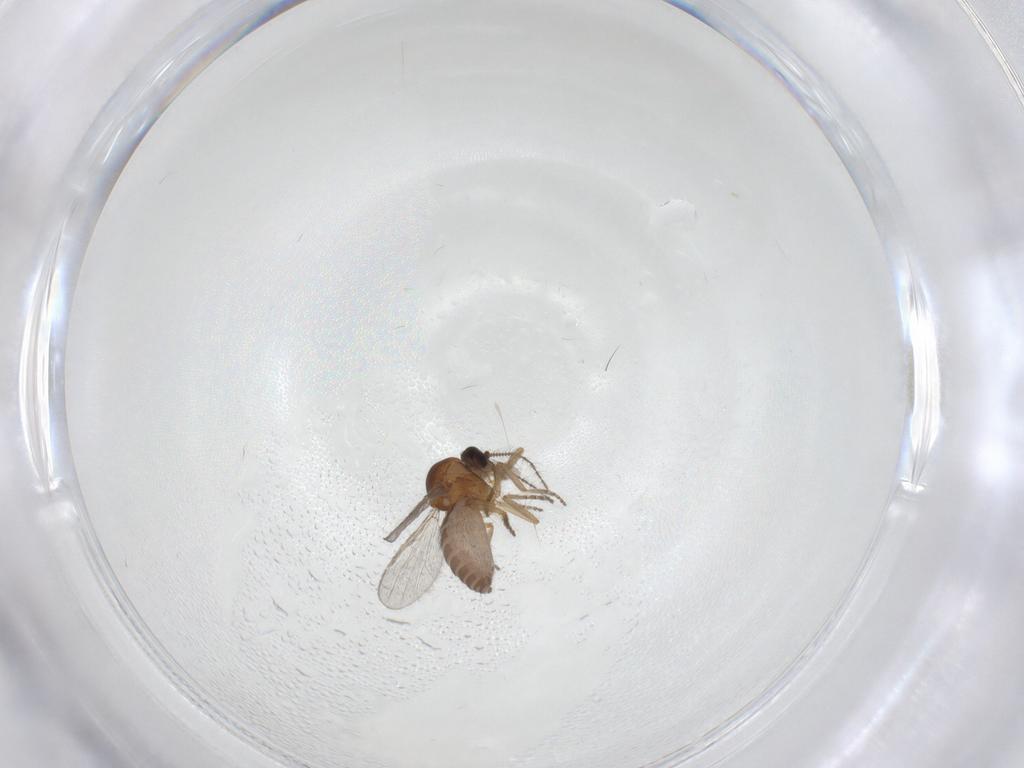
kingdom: Animalia
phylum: Arthropoda
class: Insecta
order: Diptera
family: Ceratopogonidae
